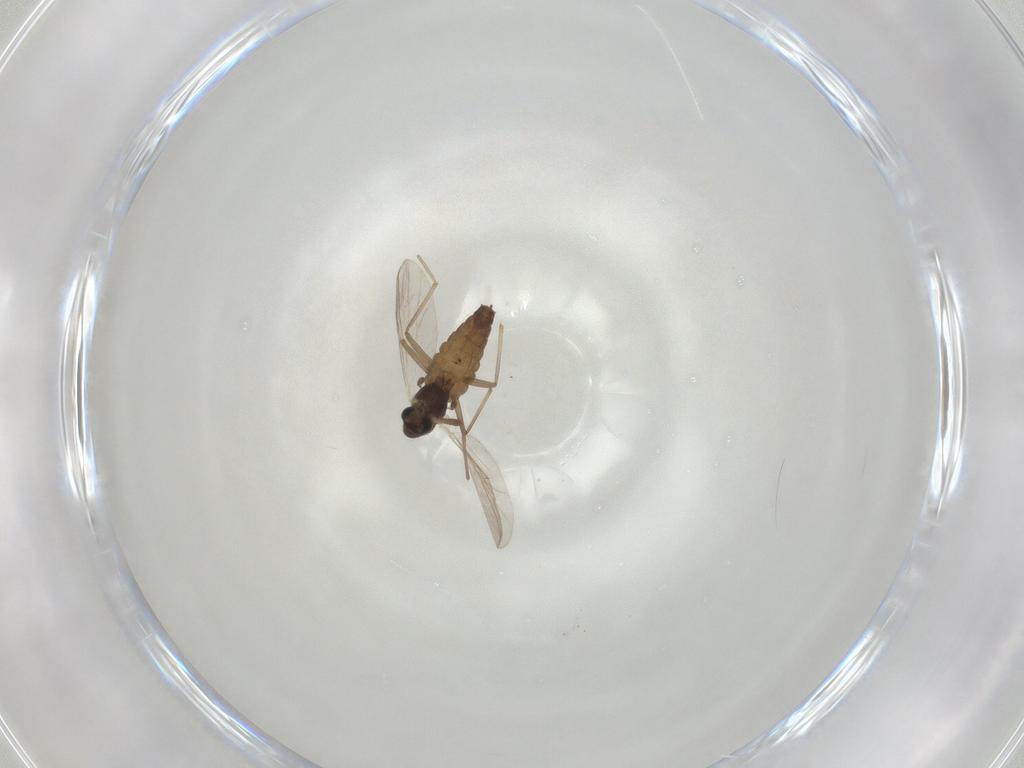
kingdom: Animalia
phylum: Arthropoda
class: Insecta
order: Diptera
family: Chironomidae
